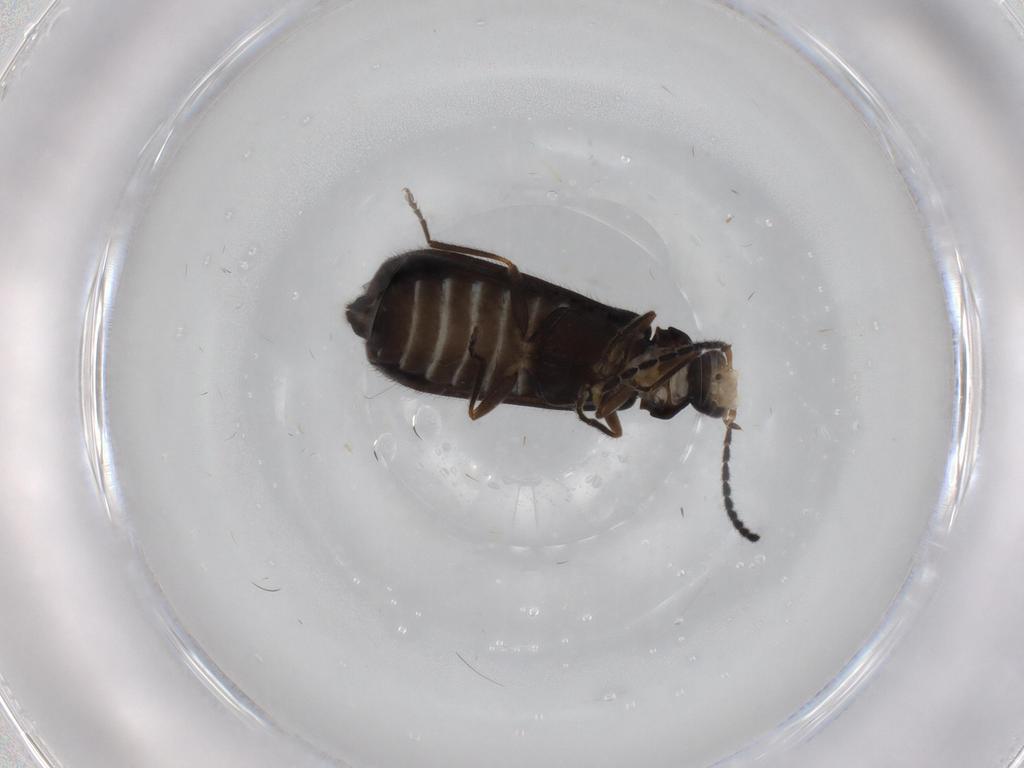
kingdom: Animalia
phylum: Arthropoda
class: Insecta
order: Coleoptera
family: Cantharidae
